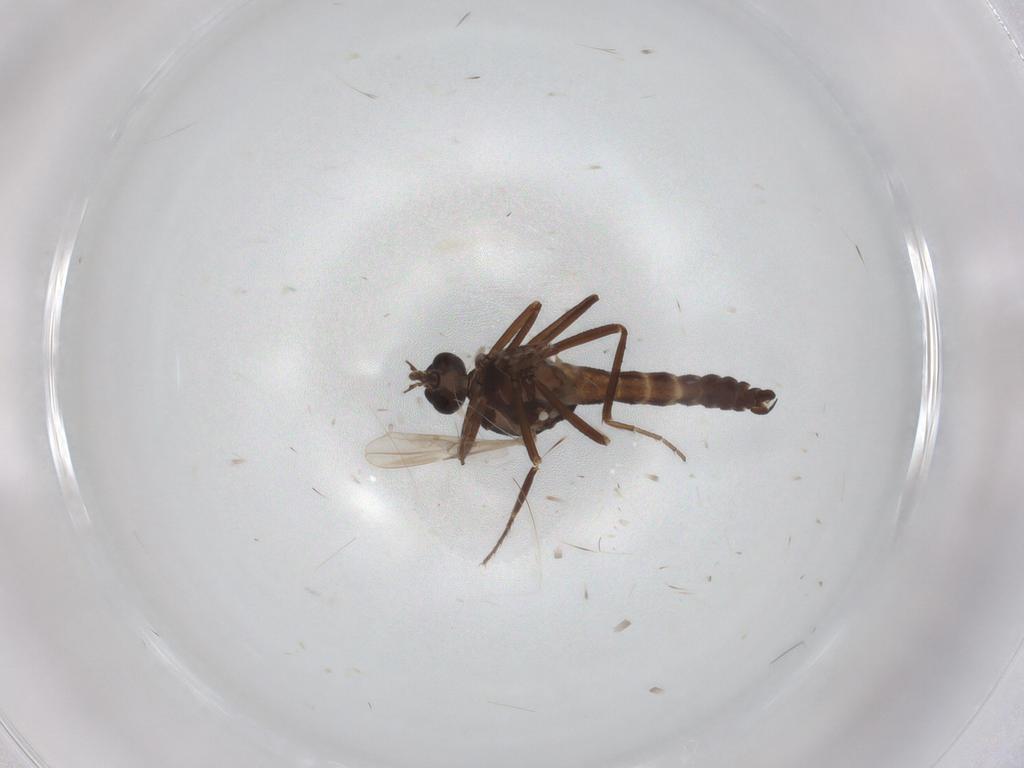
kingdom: Animalia
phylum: Arthropoda
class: Insecta
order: Diptera
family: Ceratopogonidae
